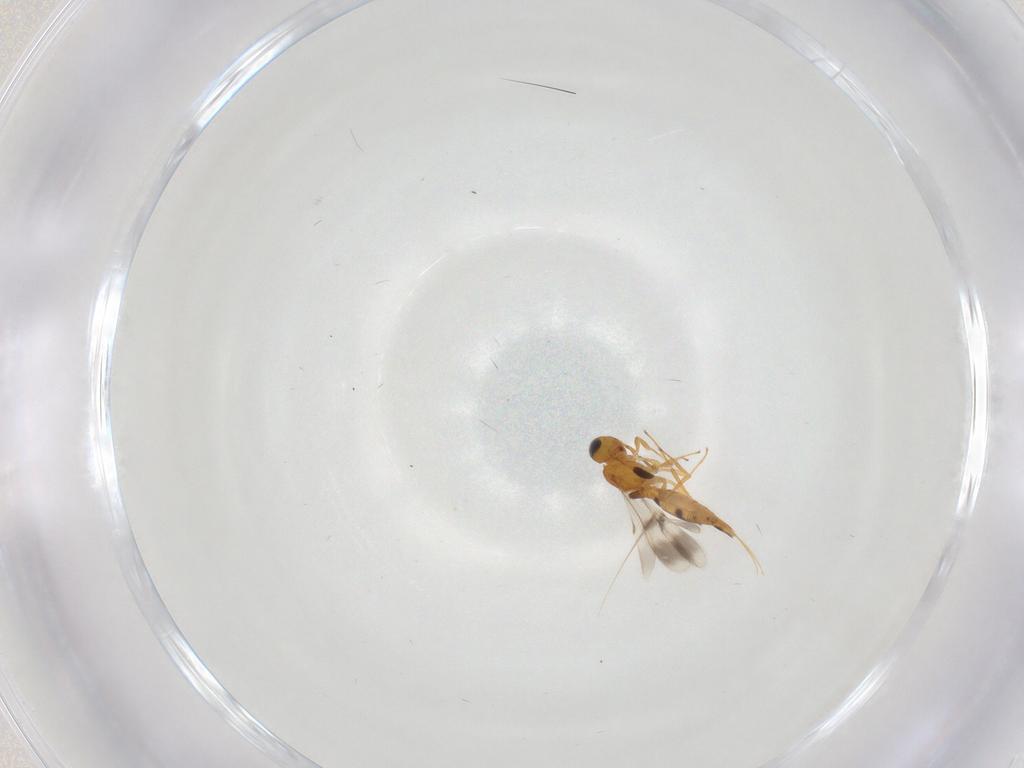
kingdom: Animalia
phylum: Arthropoda
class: Insecta
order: Hymenoptera
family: Scelionidae
